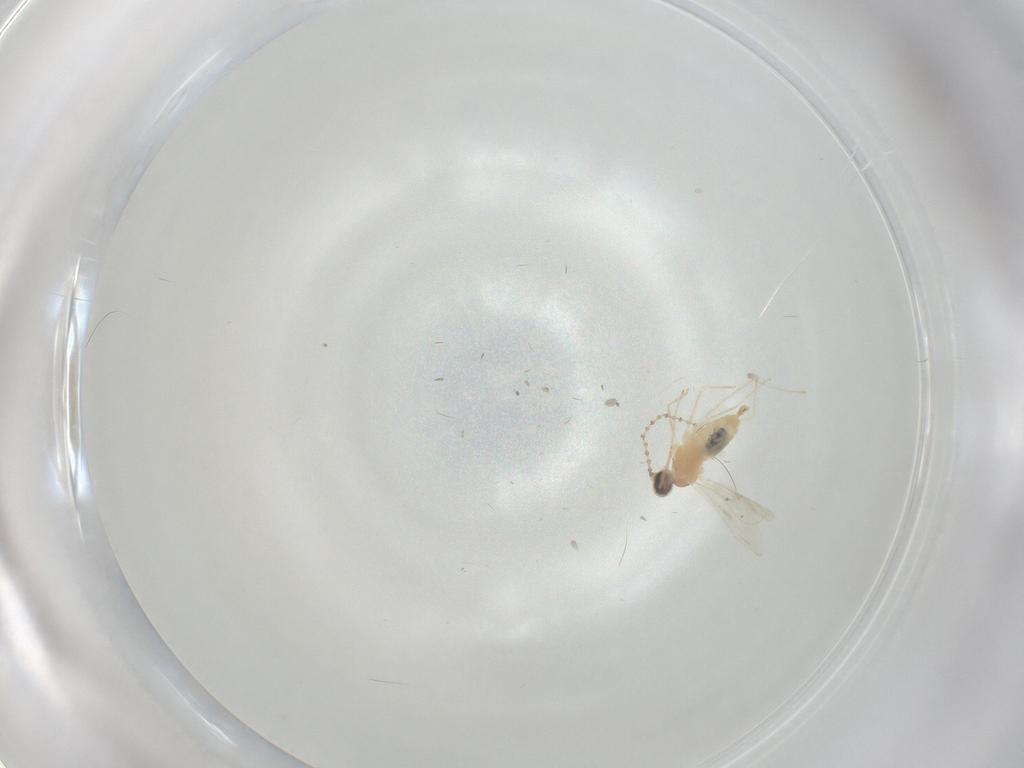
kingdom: Animalia
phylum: Arthropoda
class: Insecta
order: Diptera
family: Cecidomyiidae
